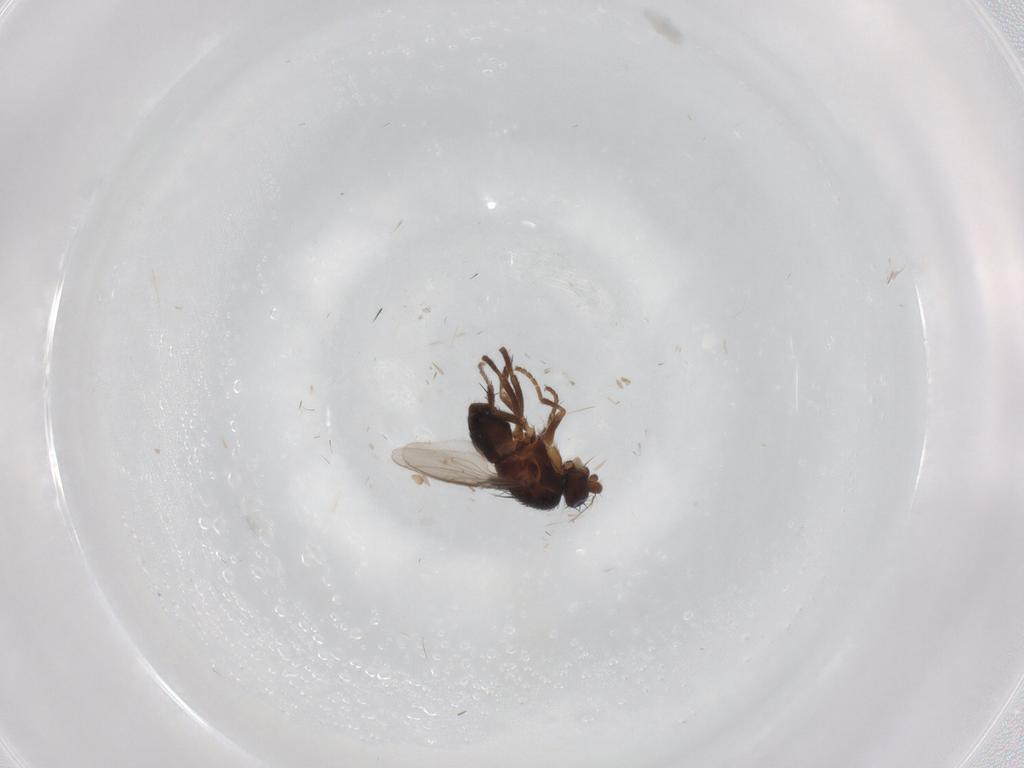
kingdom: Animalia
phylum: Arthropoda
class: Insecta
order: Diptera
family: Sphaeroceridae
